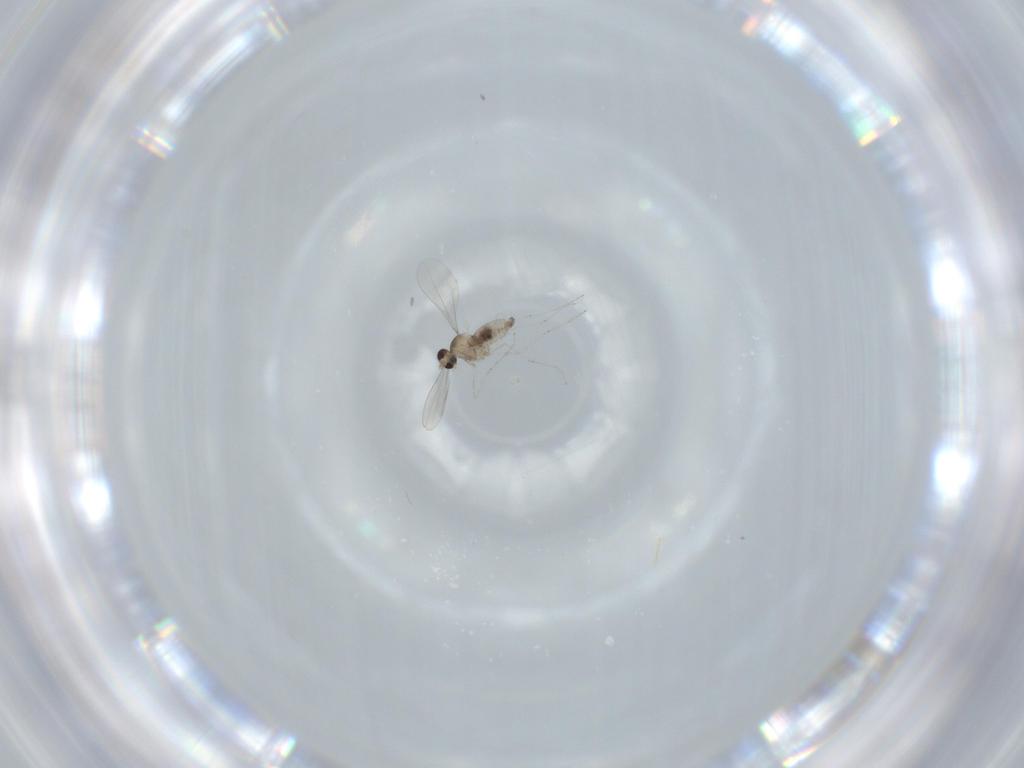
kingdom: Animalia
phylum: Arthropoda
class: Insecta
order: Diptera
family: Cecidomyiidae
